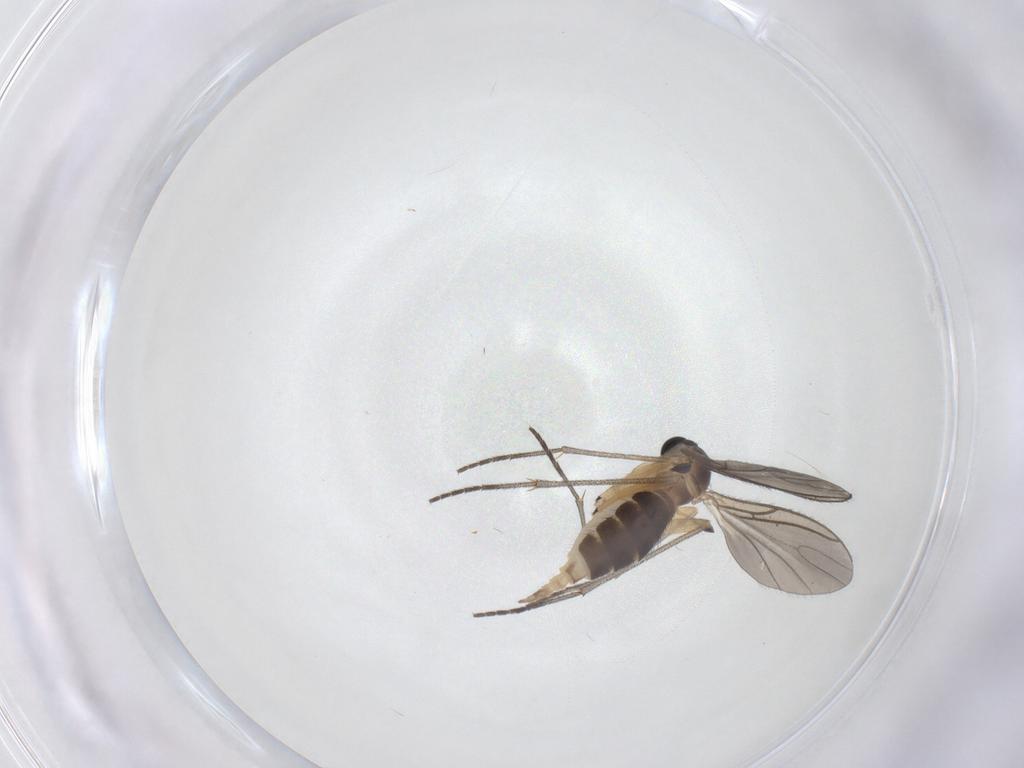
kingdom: Animalia
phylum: Arthropoda
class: Insecta
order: Diptera
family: Sciaridae
